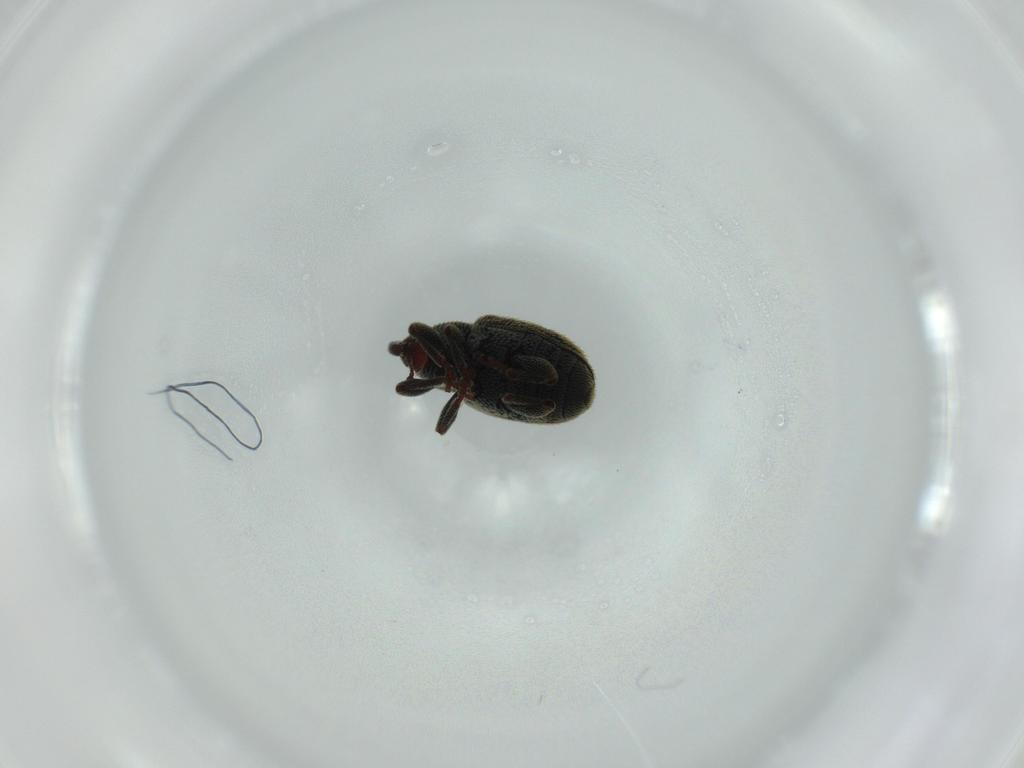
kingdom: Animalia
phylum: Arthropoda
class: Insecta
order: Coleoptera
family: Curculionidae
